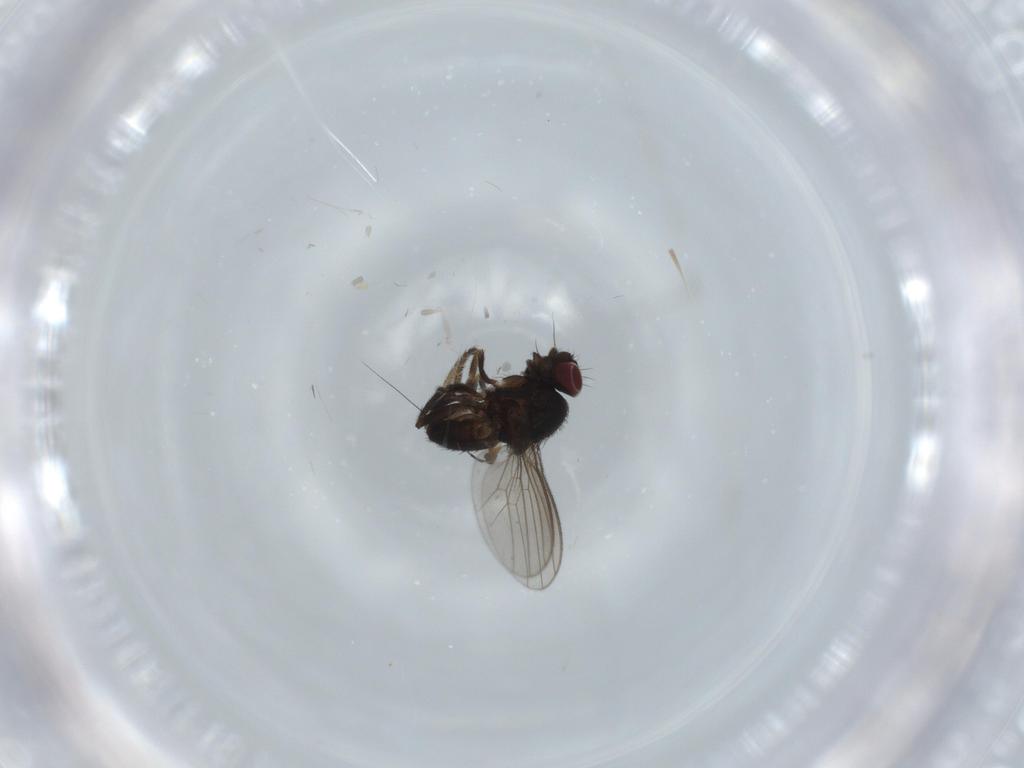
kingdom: Animalia
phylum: Arthropoda
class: Insecta
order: Diptera
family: Milichiidae
